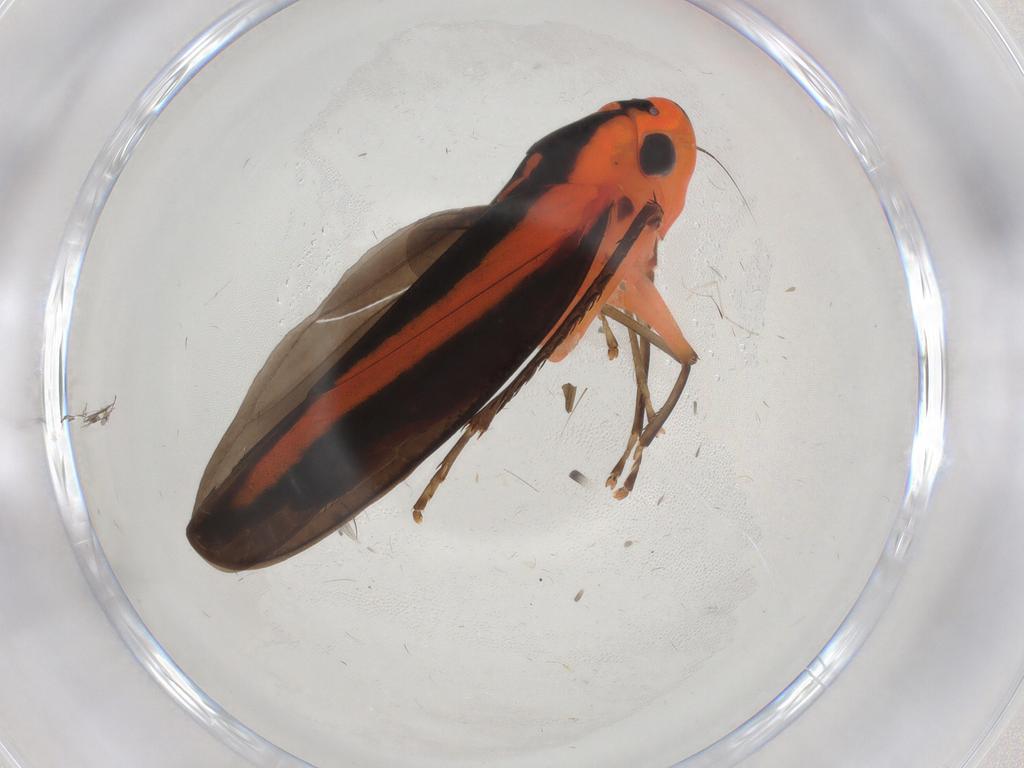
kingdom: Animalia
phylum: Arthropoda
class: Insecta
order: Hemiptera
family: Cicadellidae
